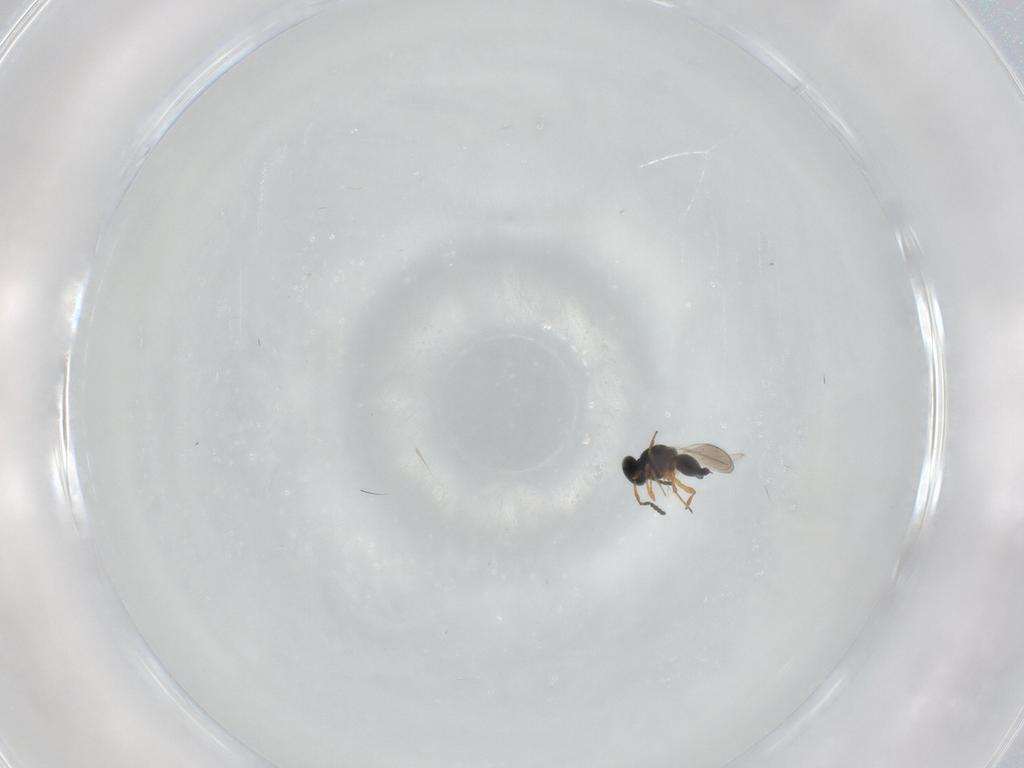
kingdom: Animalia
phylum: Arthropoda
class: Insecta
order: Hymenoptera
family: Platygastridae
